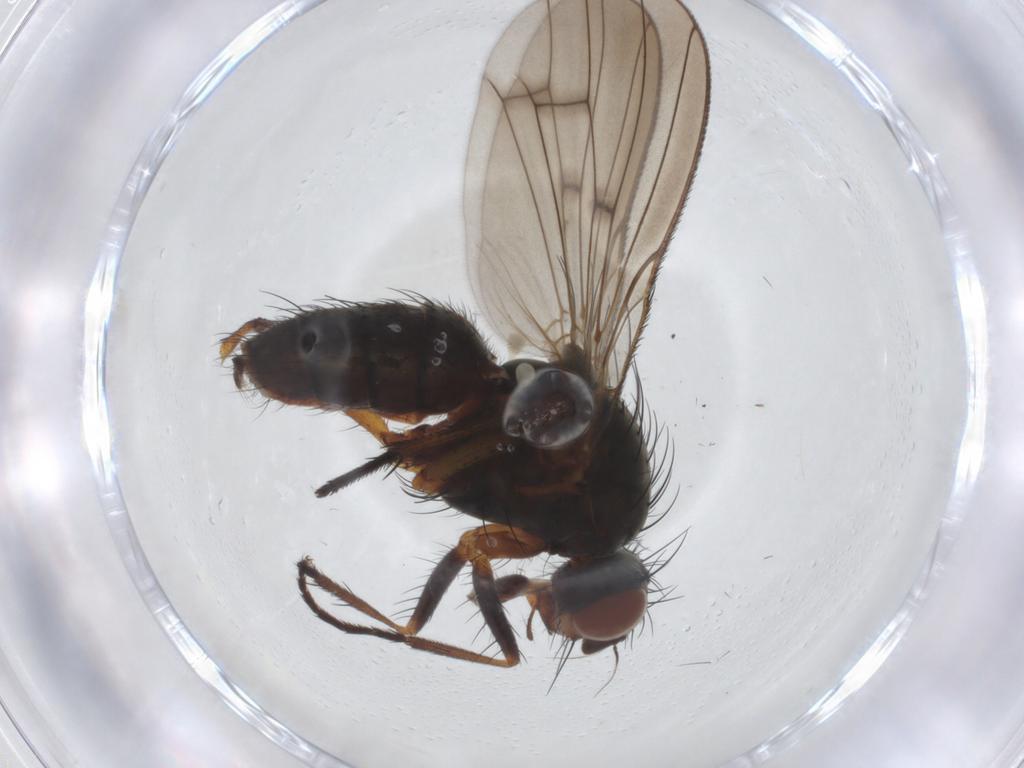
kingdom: Animalia
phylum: Arthropoda
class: Insecta
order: Diptera
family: Anthomyiidae
